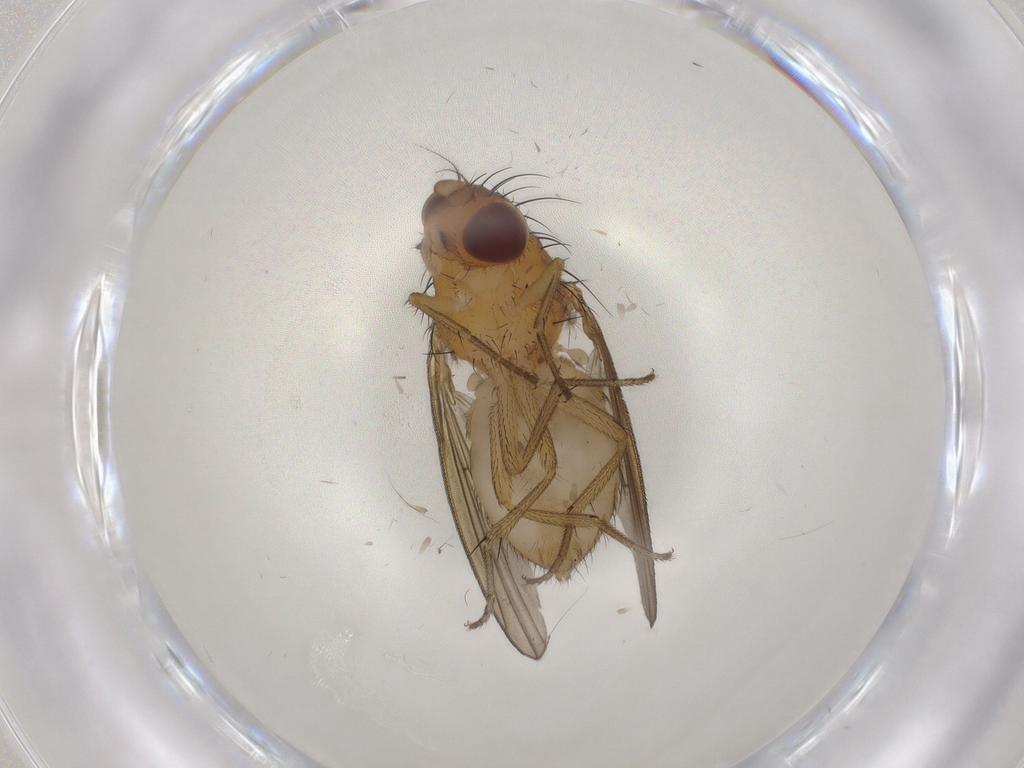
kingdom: Animalia
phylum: Arthropoda
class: Insecta
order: Diptera
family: Limoniidae
